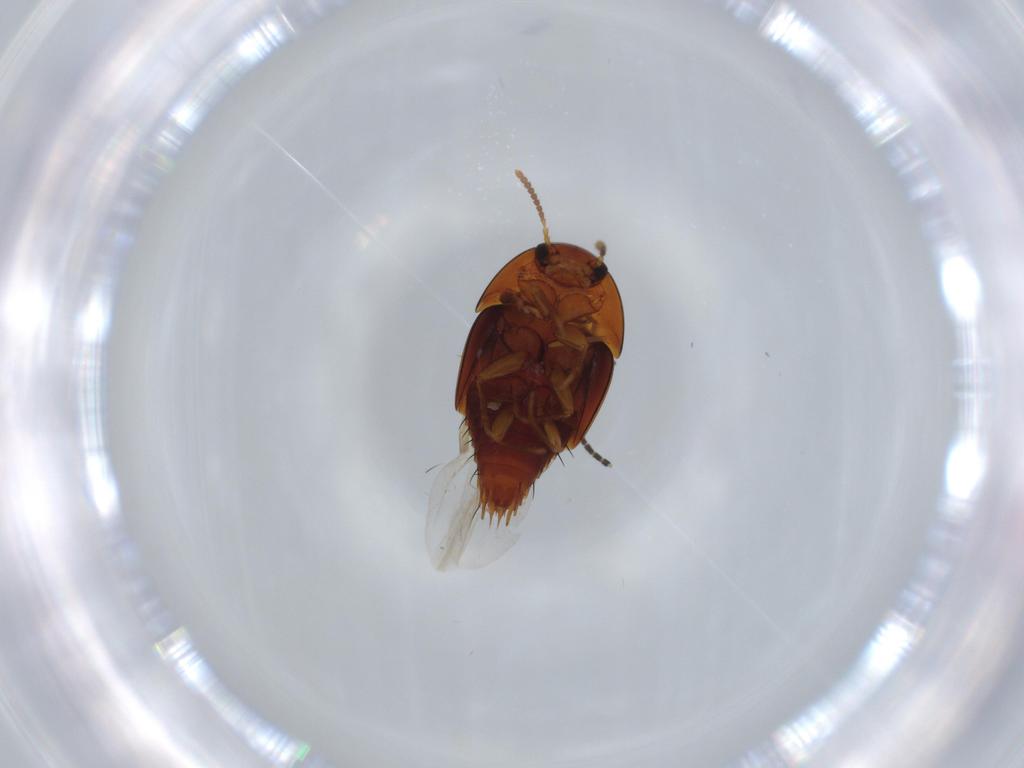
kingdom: Animalia
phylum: Arthropoda
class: Insecta
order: Coleoptera
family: Staphylinidae
